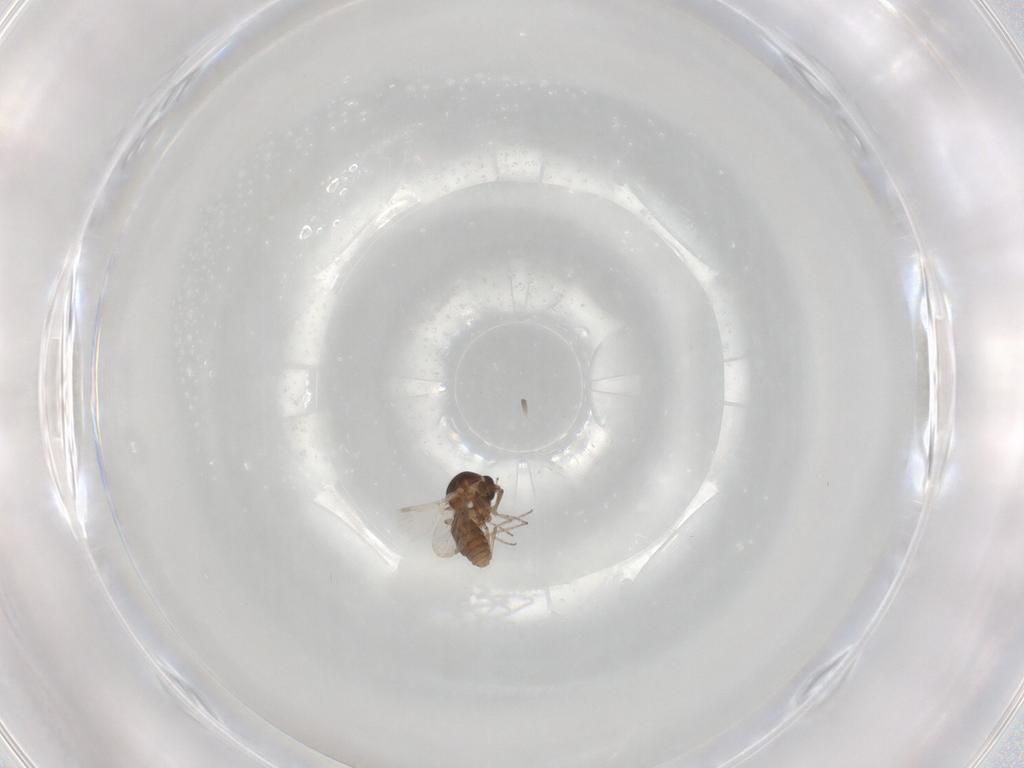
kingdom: Animalia
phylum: Arthropoda
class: Insecta
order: Diptera
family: Ceratopogonidae
